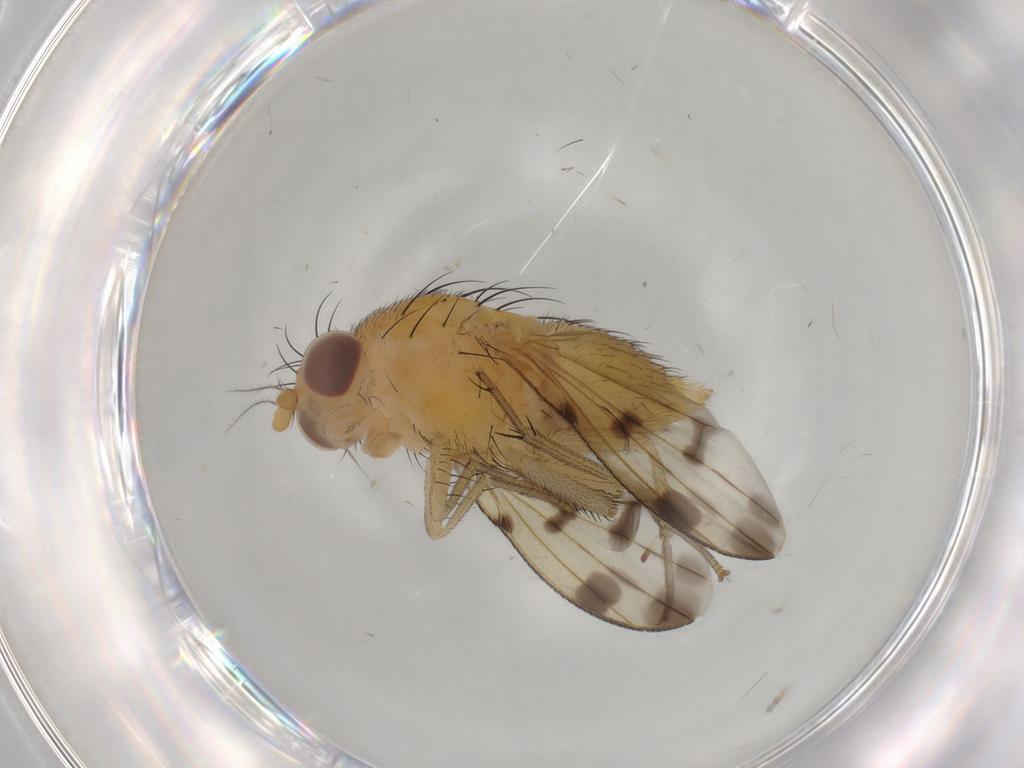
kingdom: Animalia
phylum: Arthropoda
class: Insecta
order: Diptera
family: Lauxaniidae
